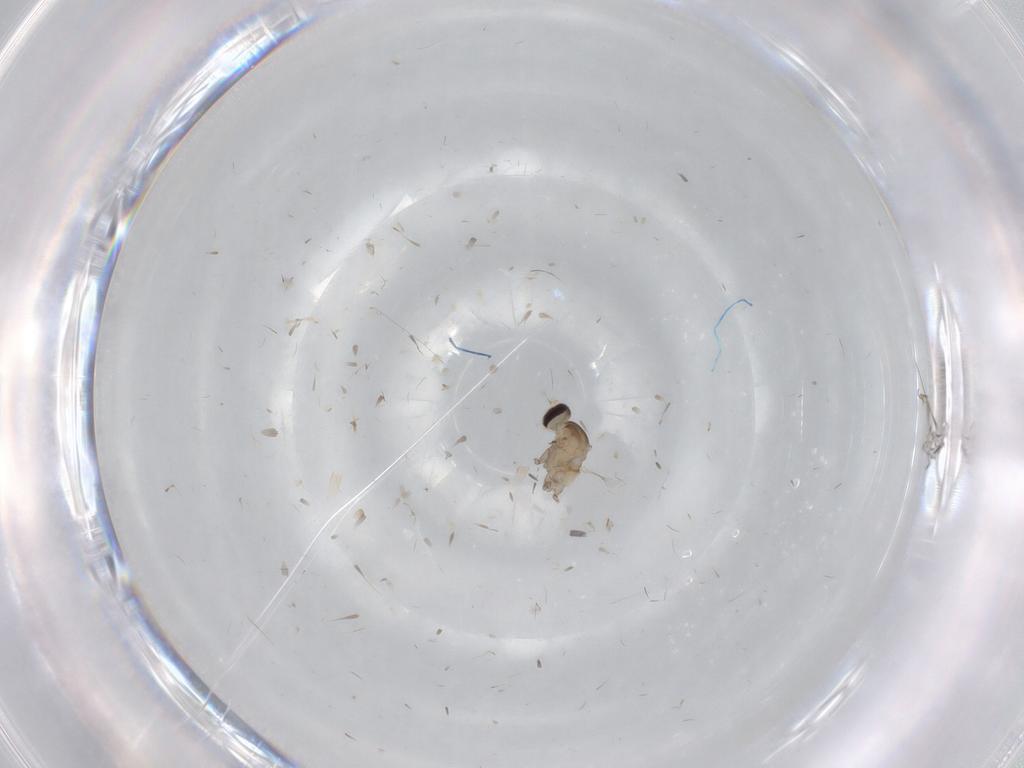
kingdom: Animalia
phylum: Arthropoda
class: Insecta
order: Diptera
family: Cecidomyiidae
